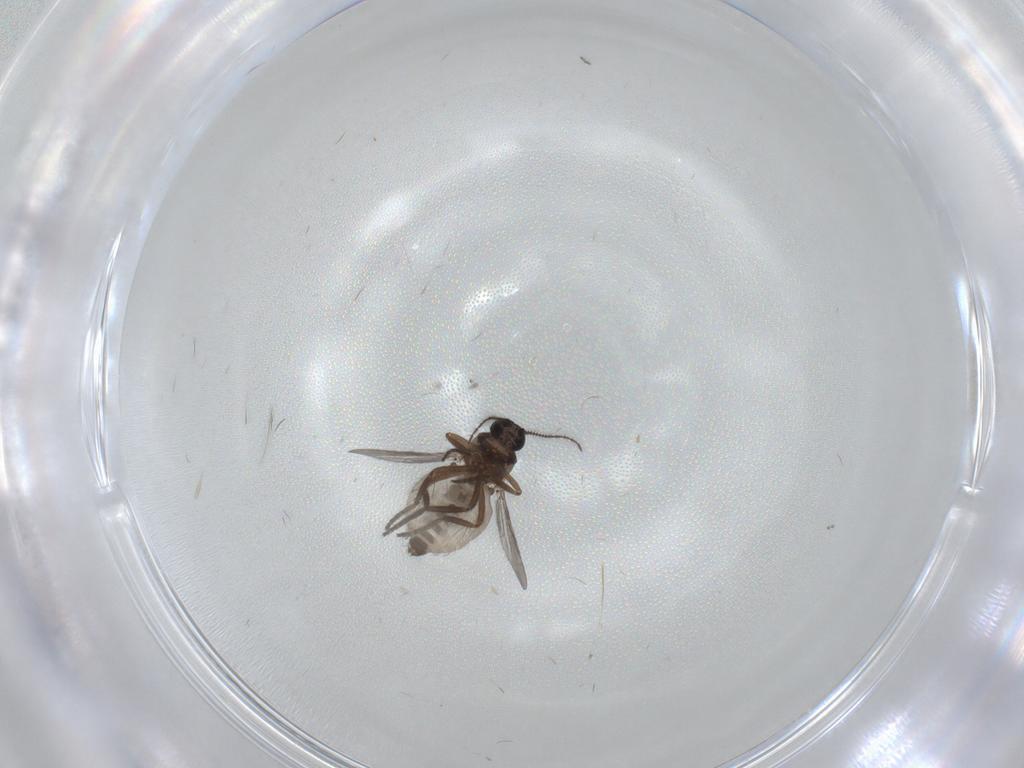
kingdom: Animalia
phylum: Arthropoda
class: Insecta
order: Diptera
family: Psychodidae
